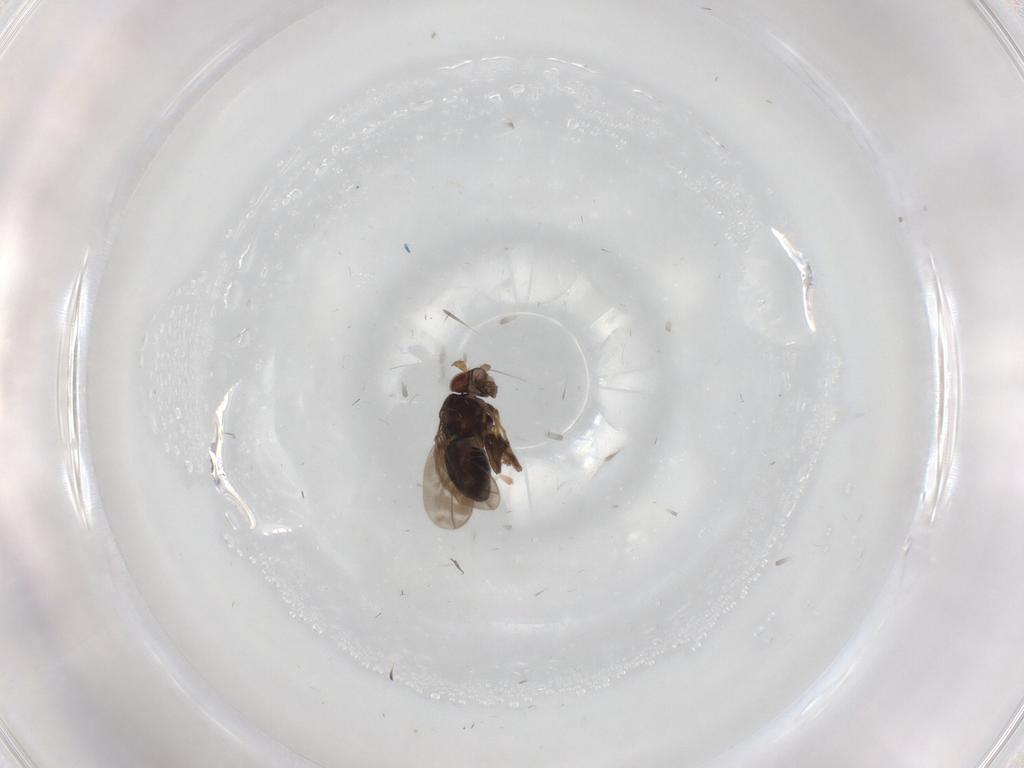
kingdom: Animalia
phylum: Arthropoda
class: Insecta
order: Diptera
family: Sphaeroceridae
